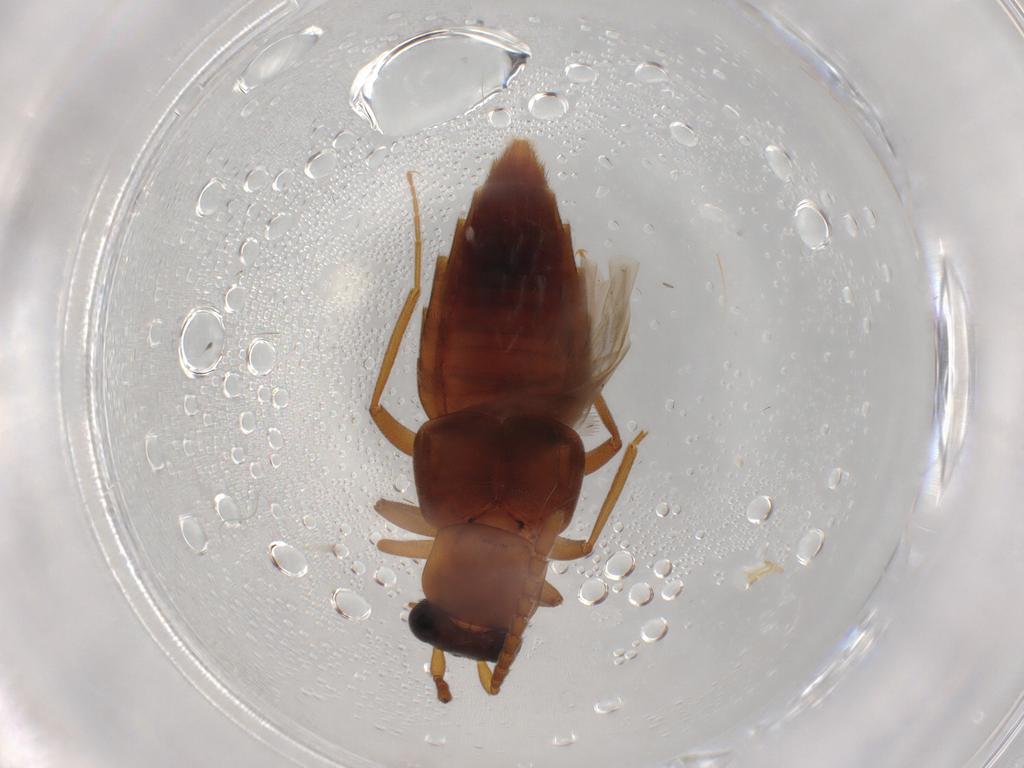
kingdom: Animalia
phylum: Arthropoda
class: Insecta
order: Coleoptera
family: Staphylinidae
